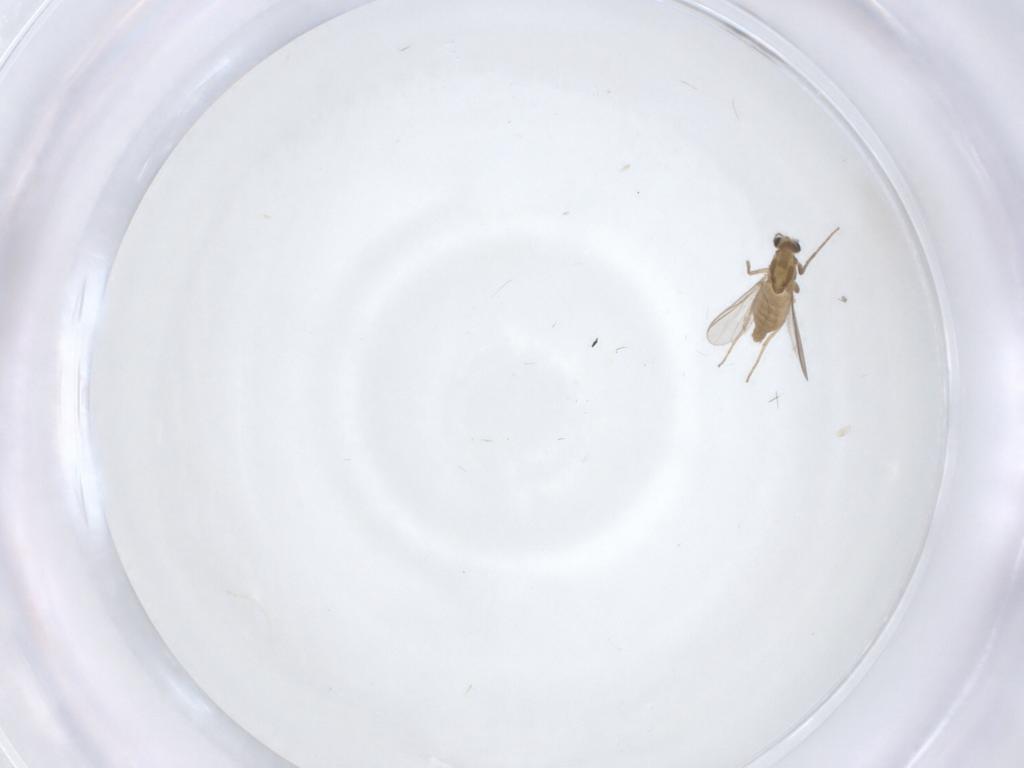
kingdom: Animalia
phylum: Arthropoda
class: Insecta
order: Diptera
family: Chironomidae
